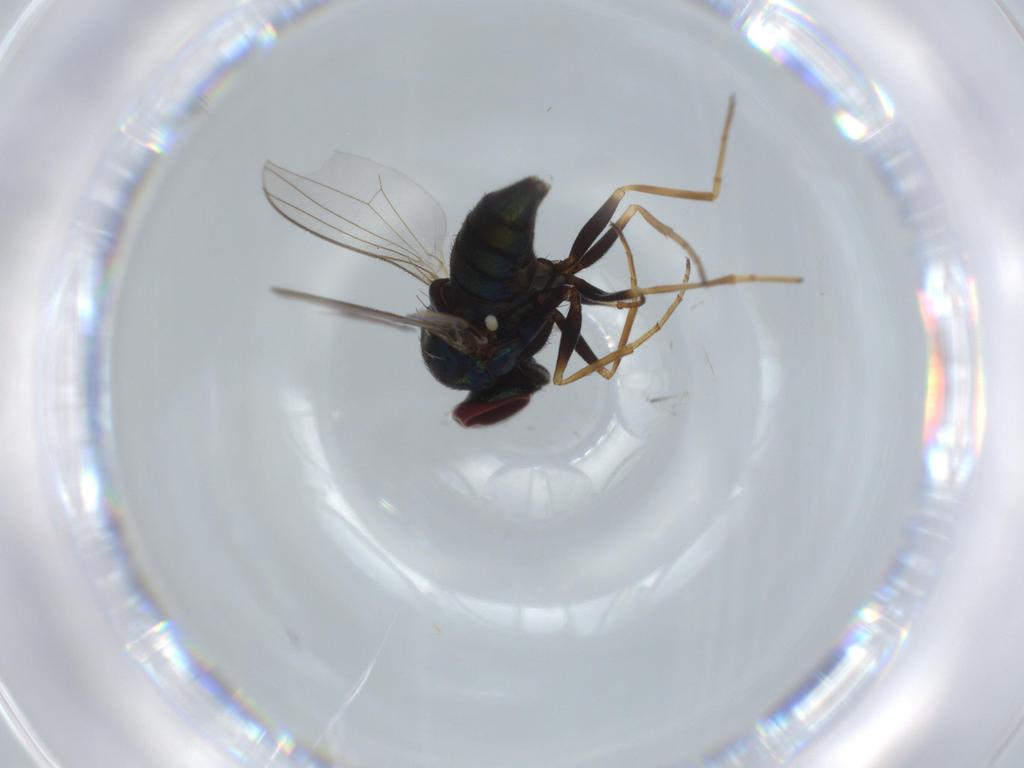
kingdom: Animalia
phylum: Arthropoda
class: Insecta
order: Diptera
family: Dolichopodidae
